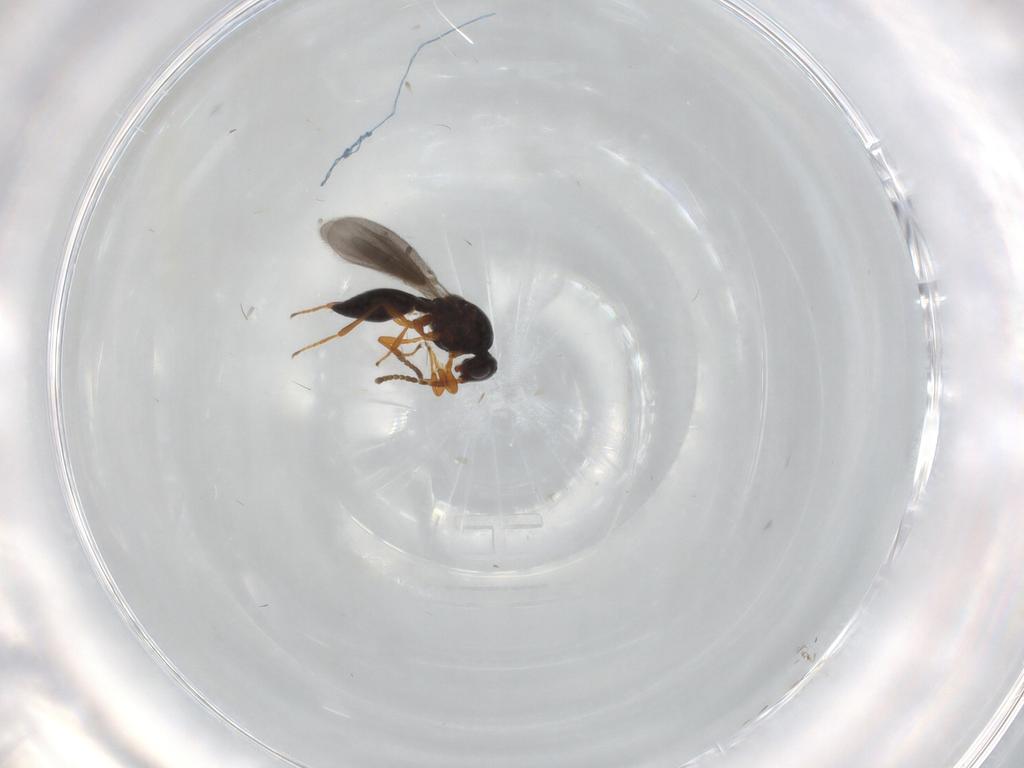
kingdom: Animalia
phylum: Arthropoda
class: Insecta
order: Hymenoptera
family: Platygastridae
